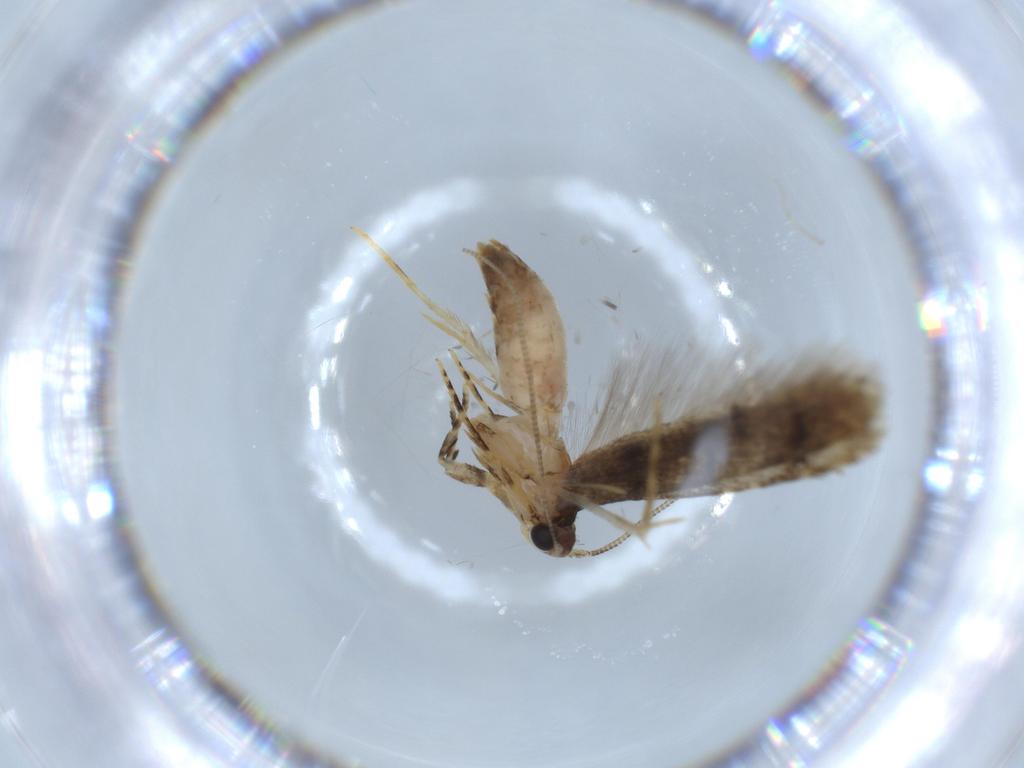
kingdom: Animalia
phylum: Arthropoda
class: Insecta
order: Lepidoptera
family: Tineidae
